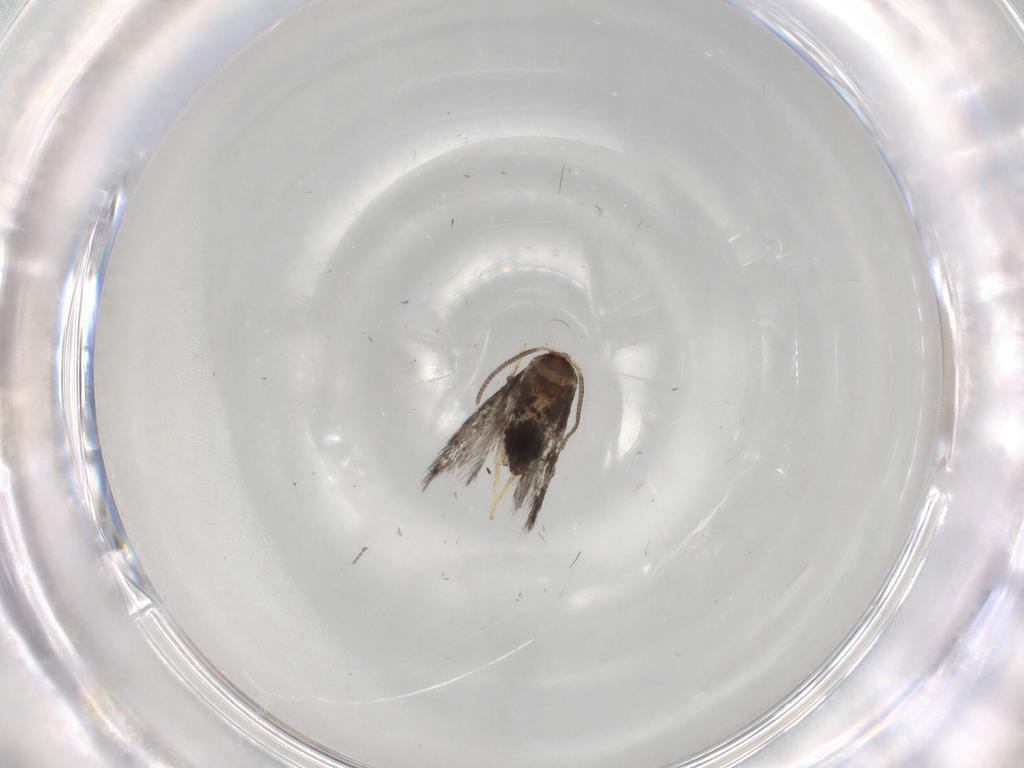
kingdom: Animalia
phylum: Arthropoda
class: Insecta
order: Lepidoptera
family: Nepticulidae
